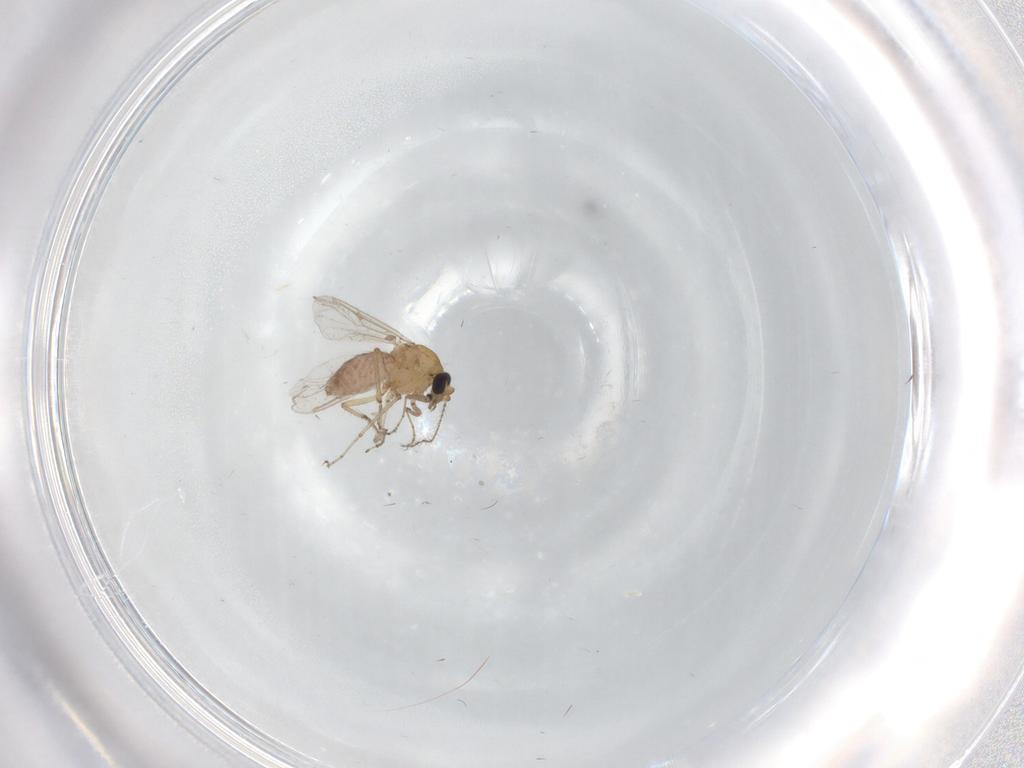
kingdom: Animalia
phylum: Arthropoda
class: Insecta
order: Diptera
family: Ceratopogonidae
